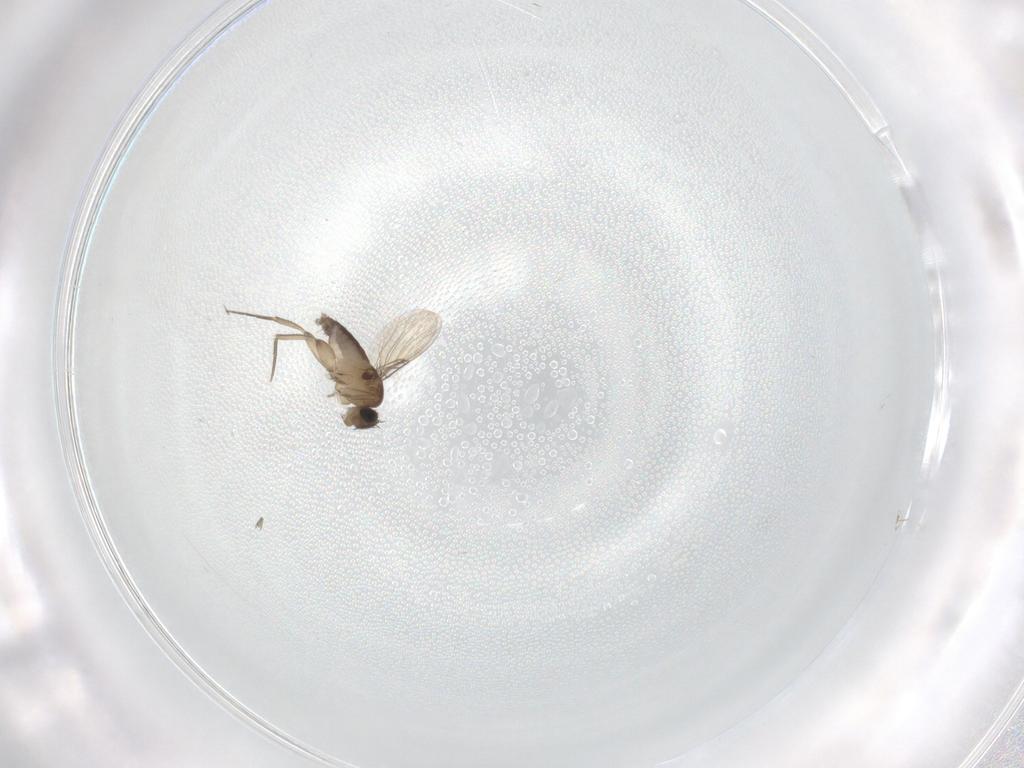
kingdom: Animalia
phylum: Arthropoda
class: Insecta
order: Diptera
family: Phoridae
